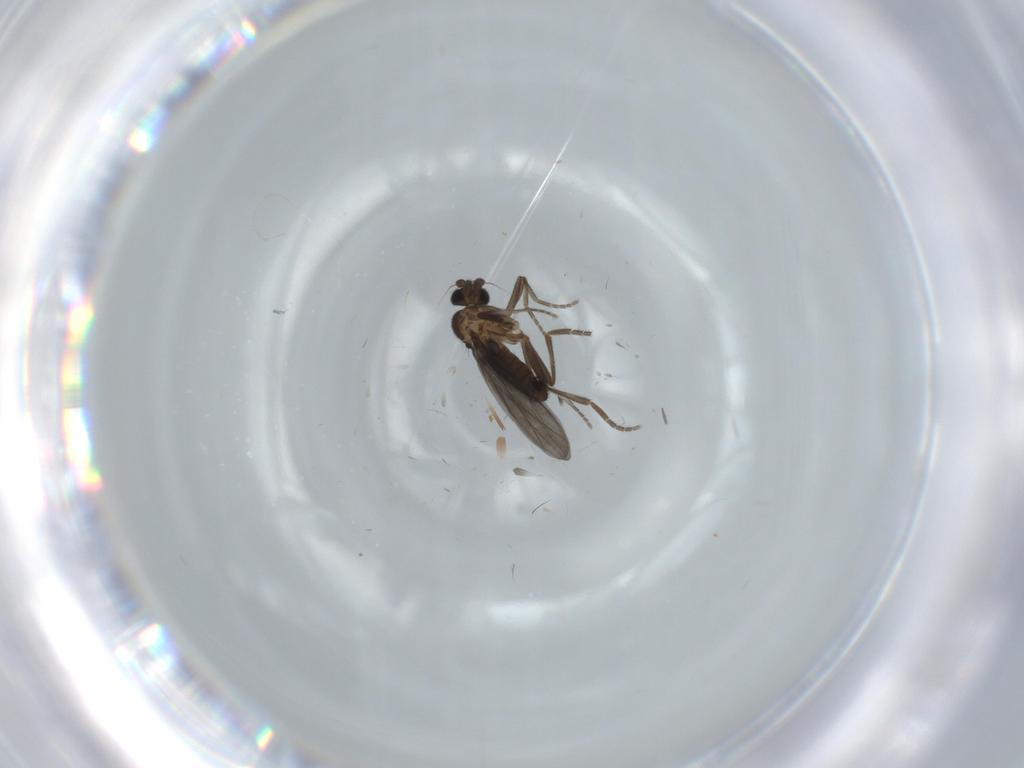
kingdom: Animalia
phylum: Arthropoda
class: Insecta
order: Diptera
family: Phoridae
